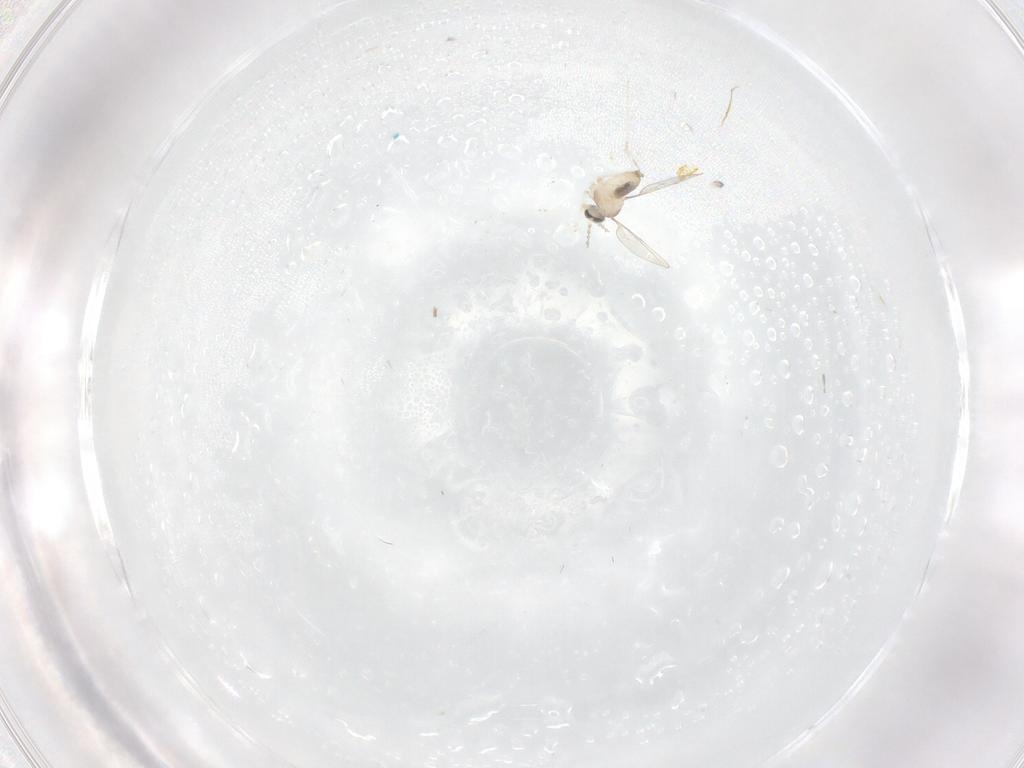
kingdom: Animalia
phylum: Arthropoda
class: Insecta
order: Diptera
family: Cecidomyiidae
